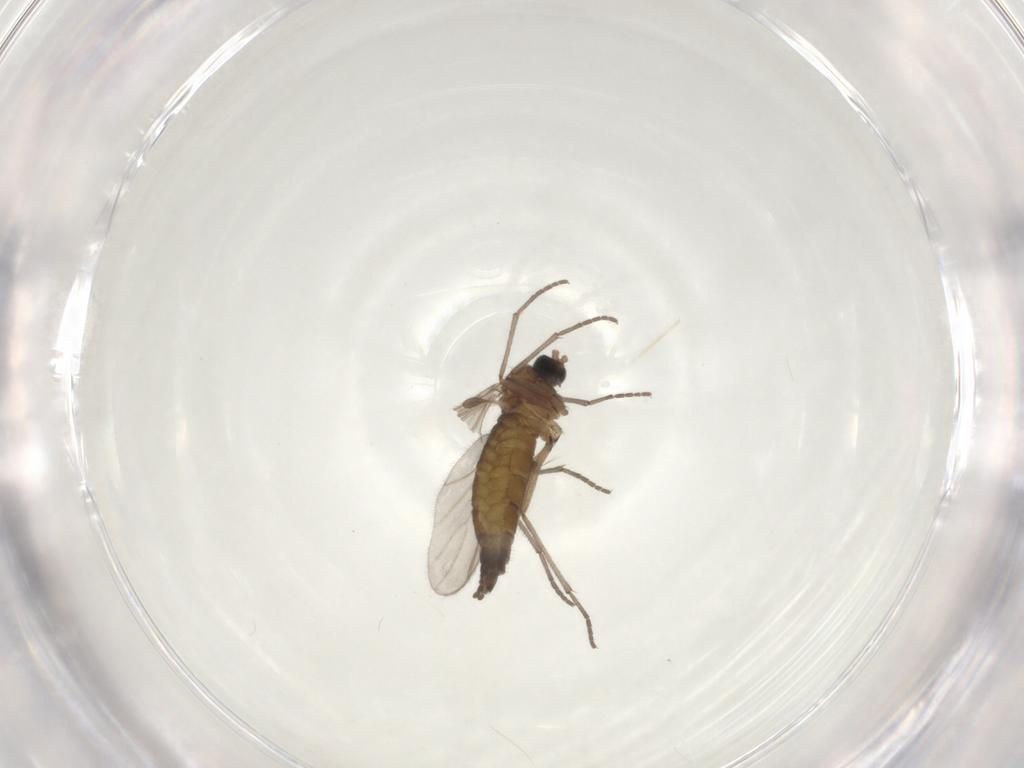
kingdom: Animalia
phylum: Arthropoda
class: Insecta
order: Diptera
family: Sciaridae
